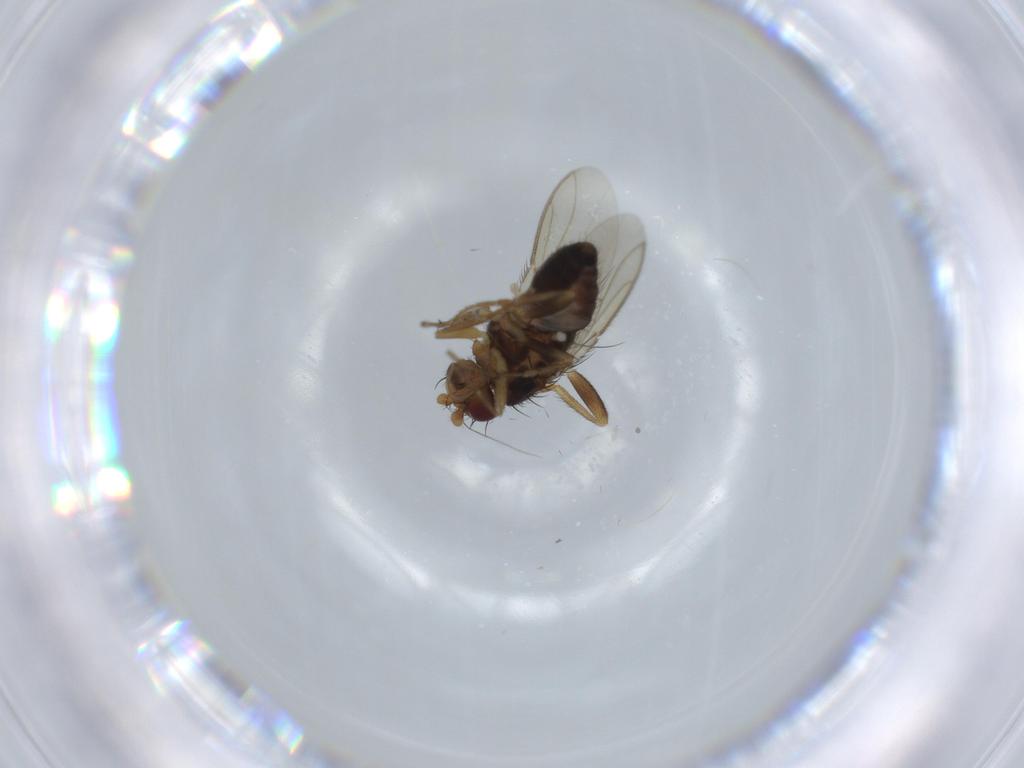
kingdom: Animalia
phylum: Arthropoda
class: Insecta
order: Diptera
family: Sphaeroceridae
